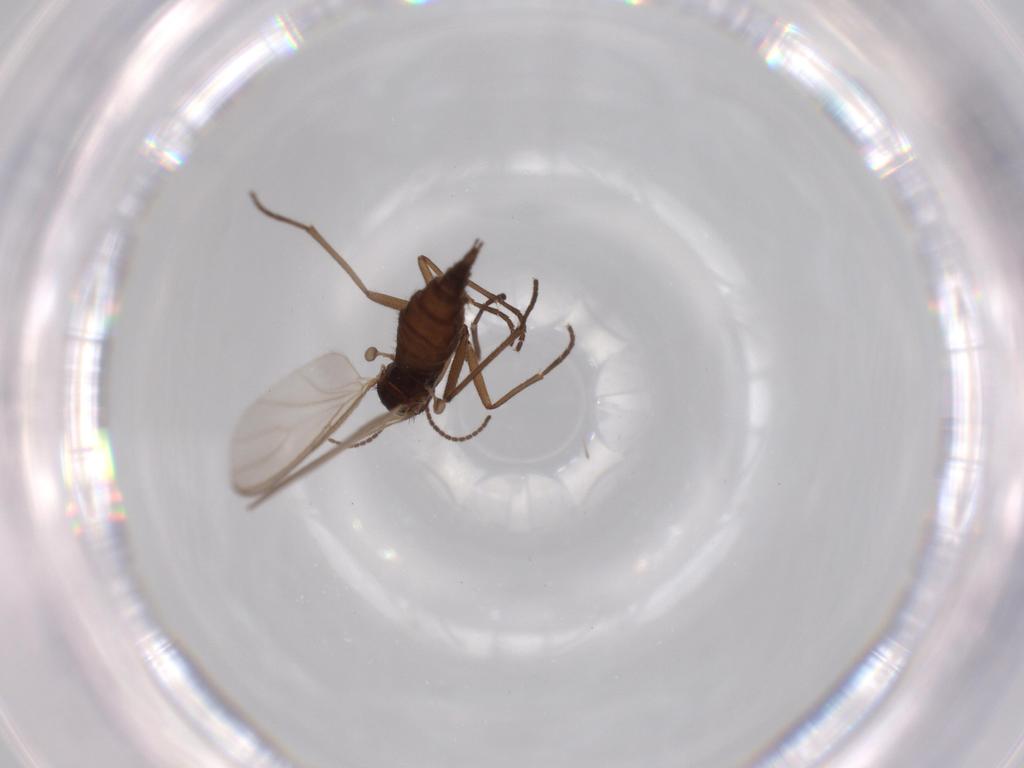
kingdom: Animalia
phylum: Arthropoda
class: Insecta
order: Diptera
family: Sciaridae
